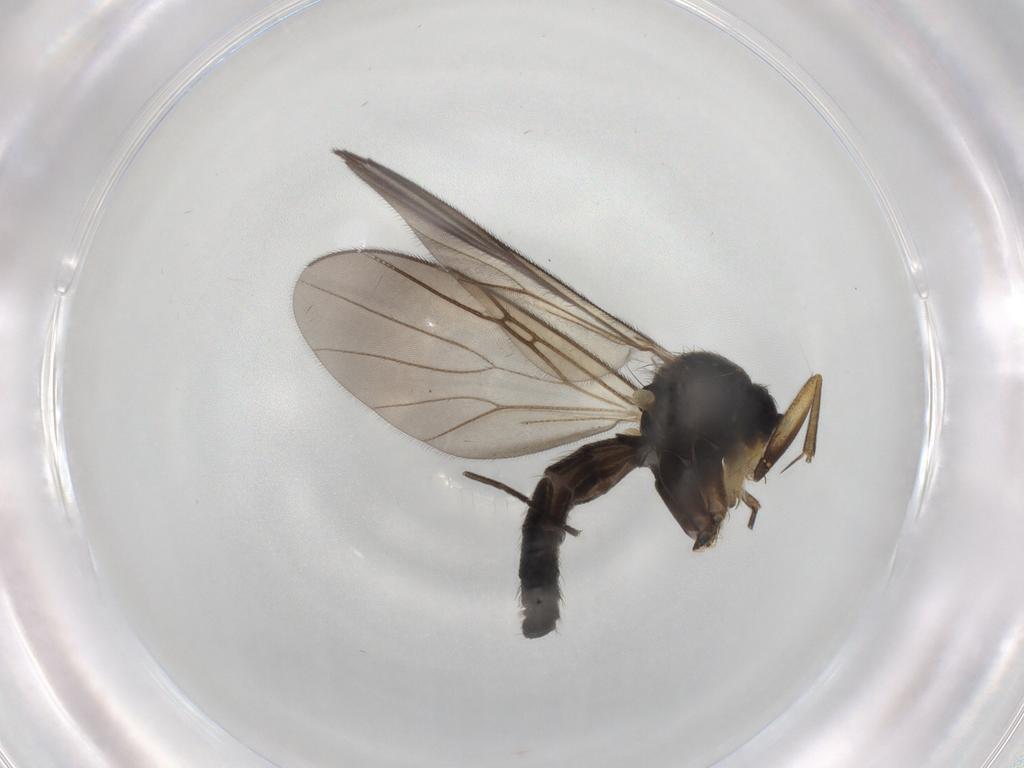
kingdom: Animalia
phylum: Arthropoda
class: Insecta
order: Diptera
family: Mycetophilidae
